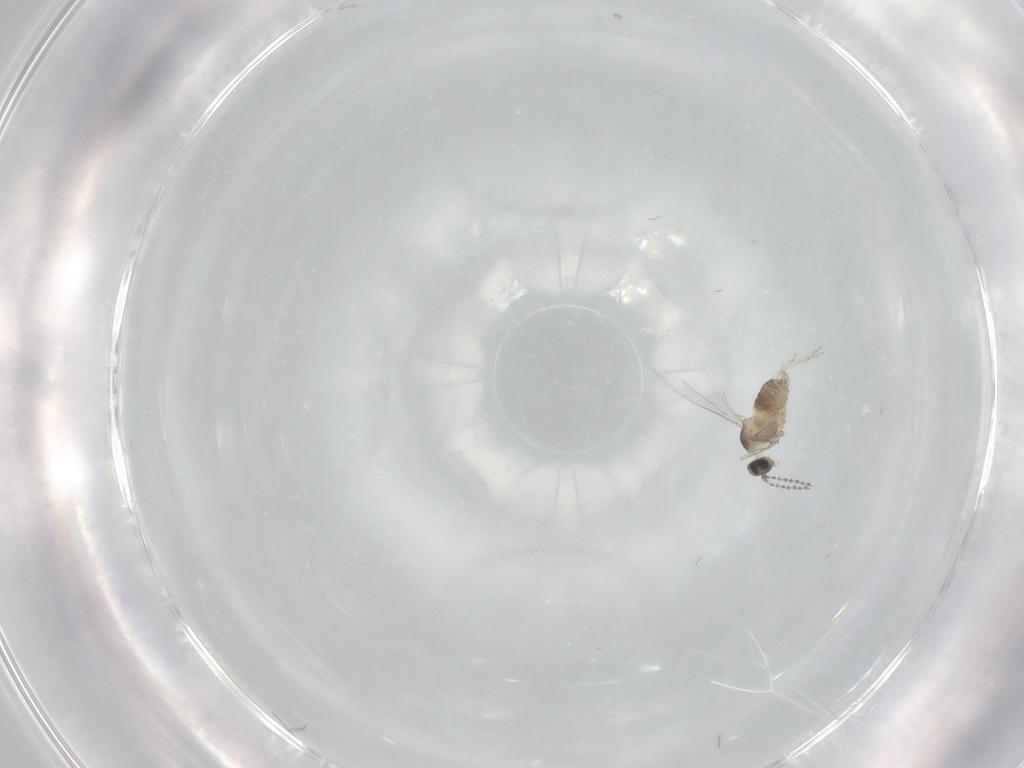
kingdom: Animalia
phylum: Arthropoda
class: Insecta
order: Diptera
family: Cecidomyiidae
